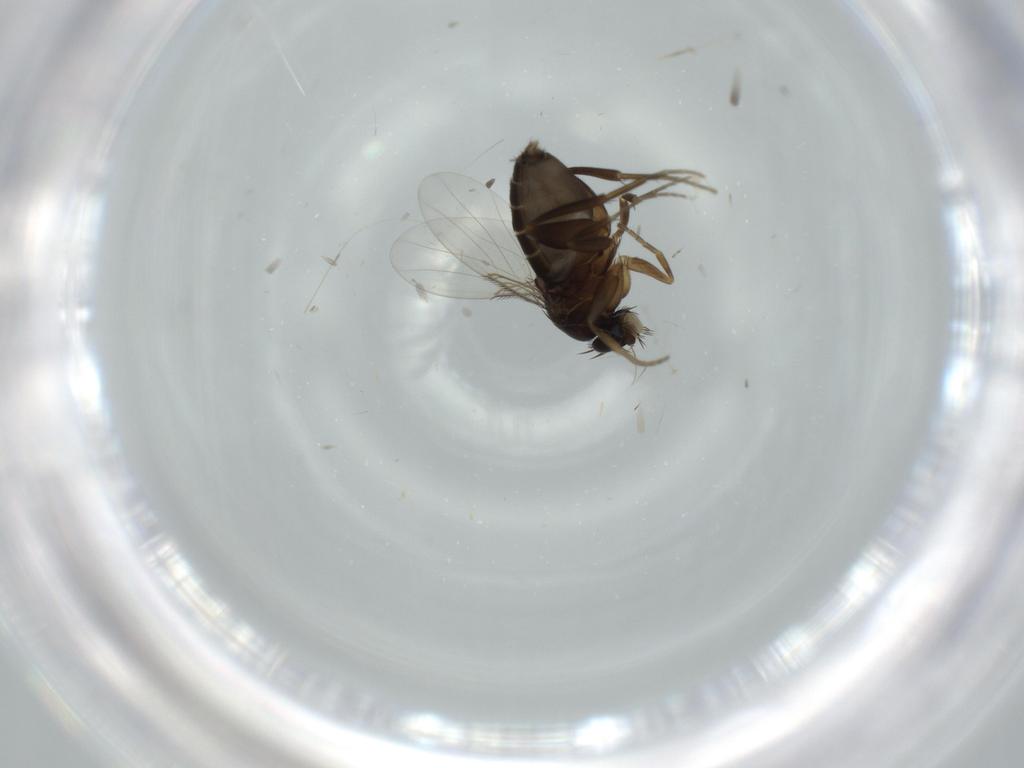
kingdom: Animalia
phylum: Arthropoda
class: Insecta
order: Diptera
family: Phoridae
